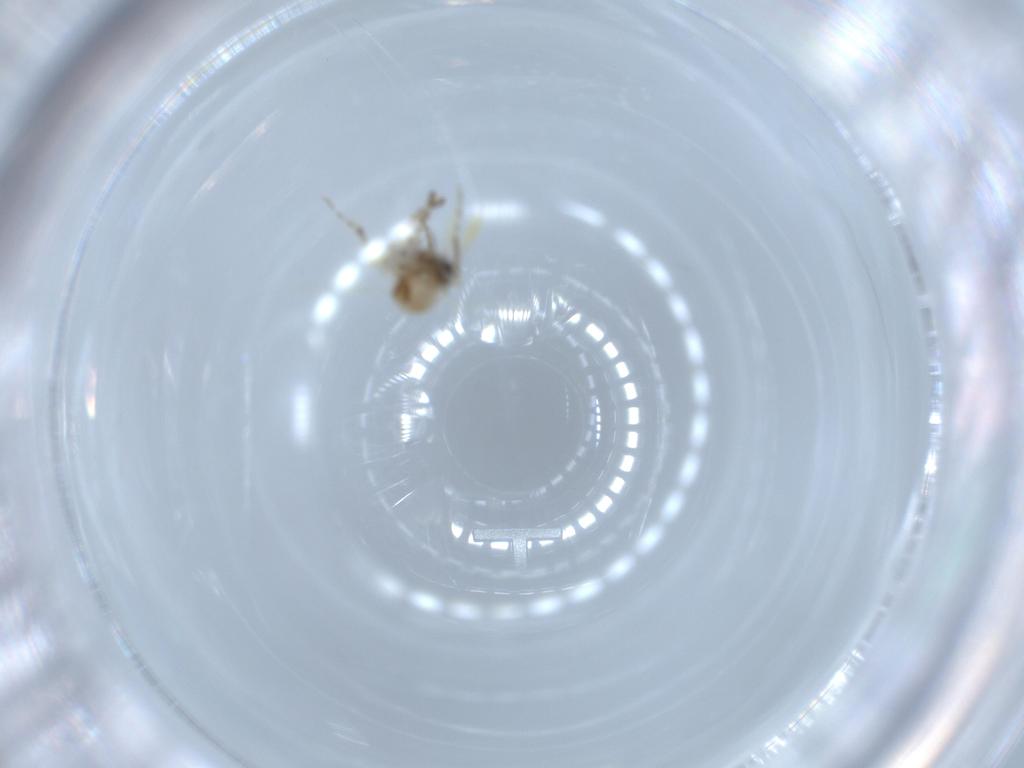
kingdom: Animalia
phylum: Arthropoda
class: Insecta
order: Diptera
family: Ceratopogonidae
